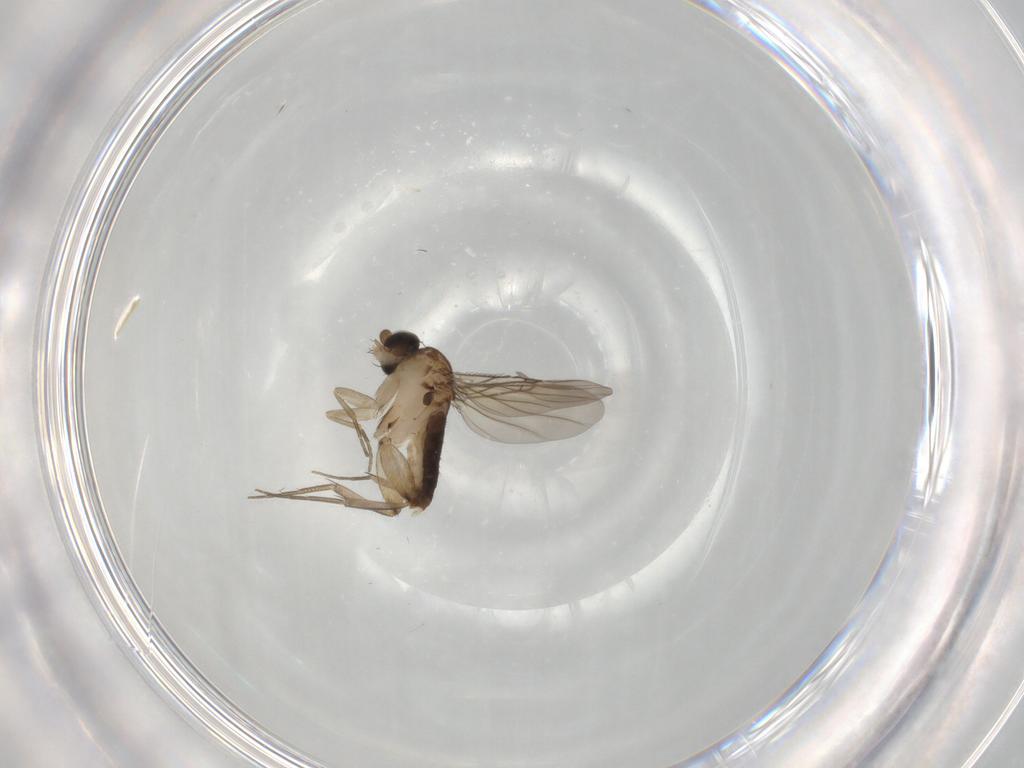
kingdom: Animalia
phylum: Arthropoda
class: Insecta
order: Diptera
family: Phoridae
